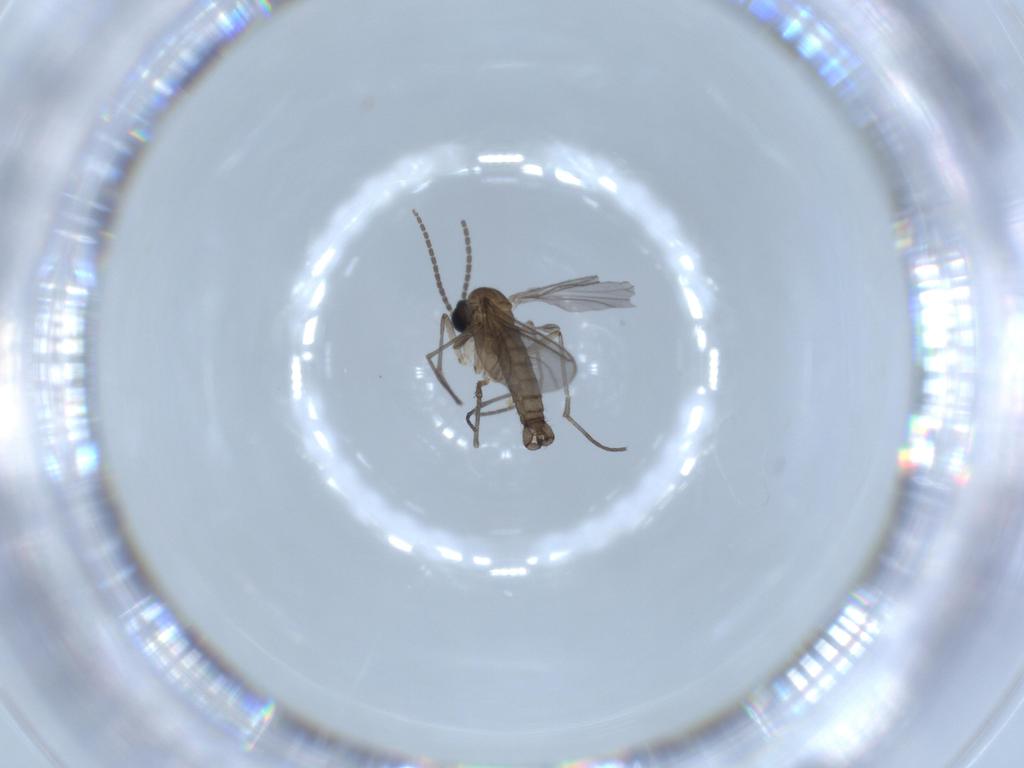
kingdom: Animalia
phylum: Arthropoda
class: Insecta
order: Diptera
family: Sciaridae
